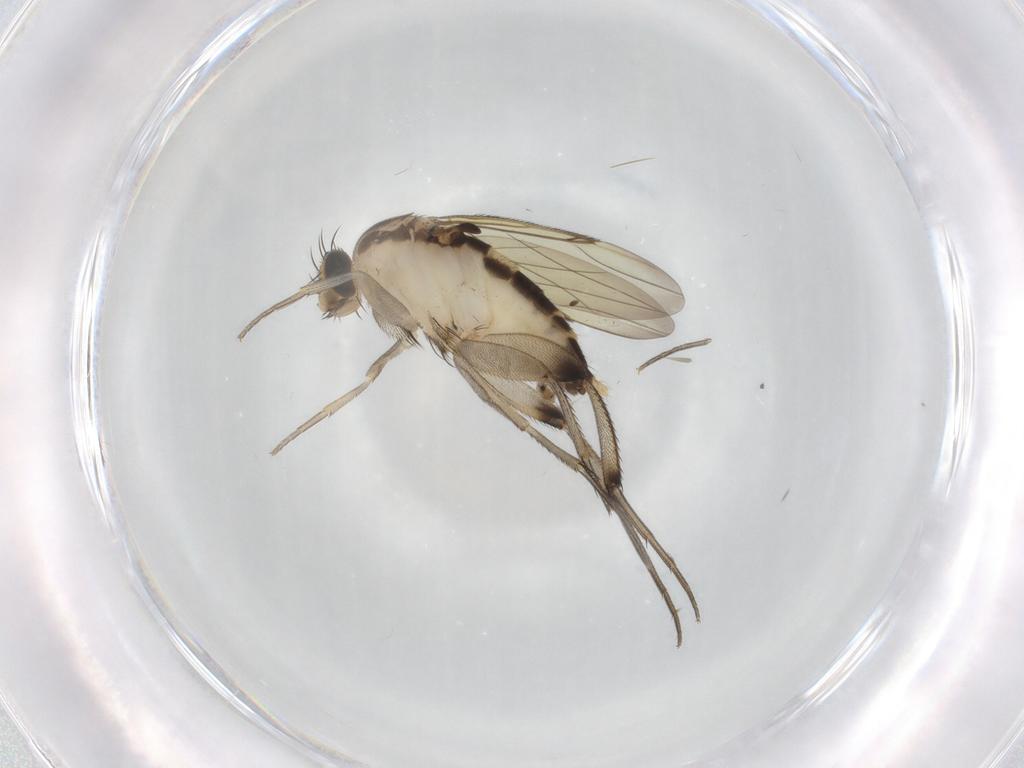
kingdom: Animalia
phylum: Arthropoda
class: Insecta
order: Diptera
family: Phoridae
